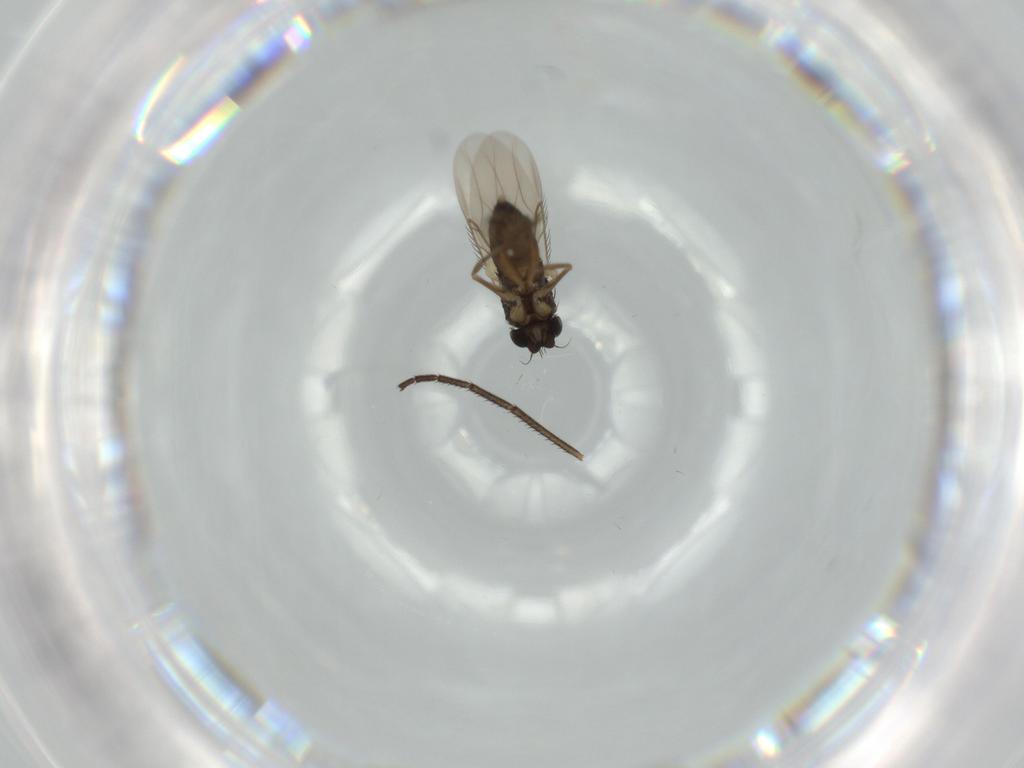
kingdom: Animalia
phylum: Arthropoda
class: Insecta
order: Diptera
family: Phoridae
